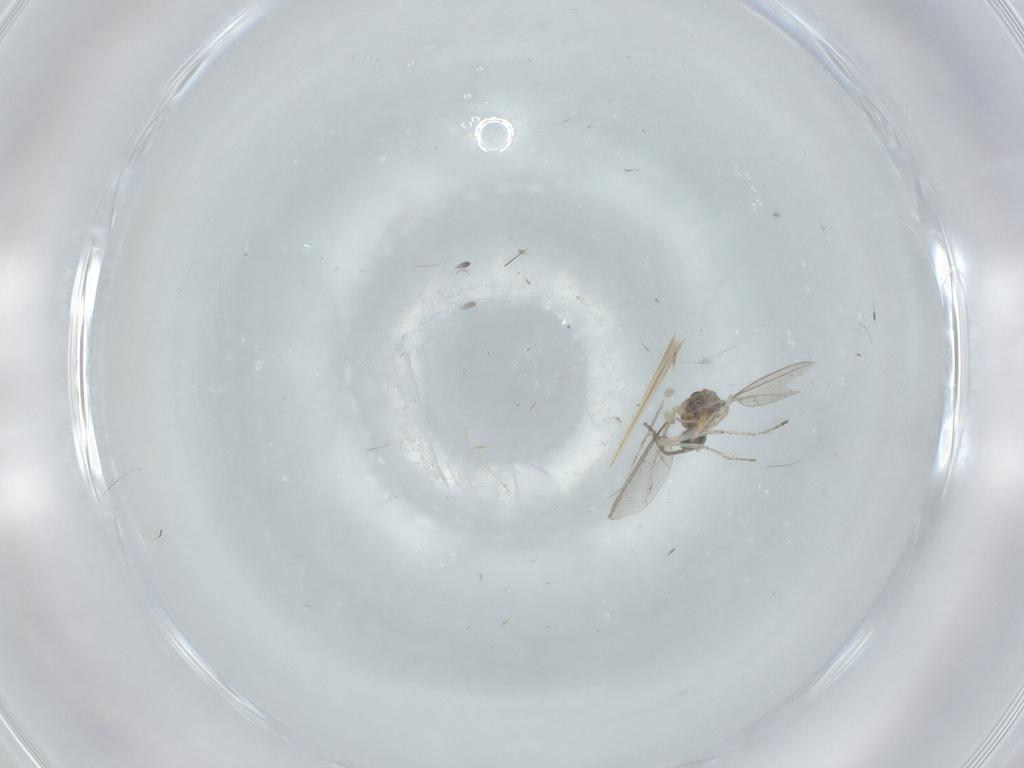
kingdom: Animalia
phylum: Arthropoda
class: Insecta
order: Diptera
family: Cecidomyiidae
